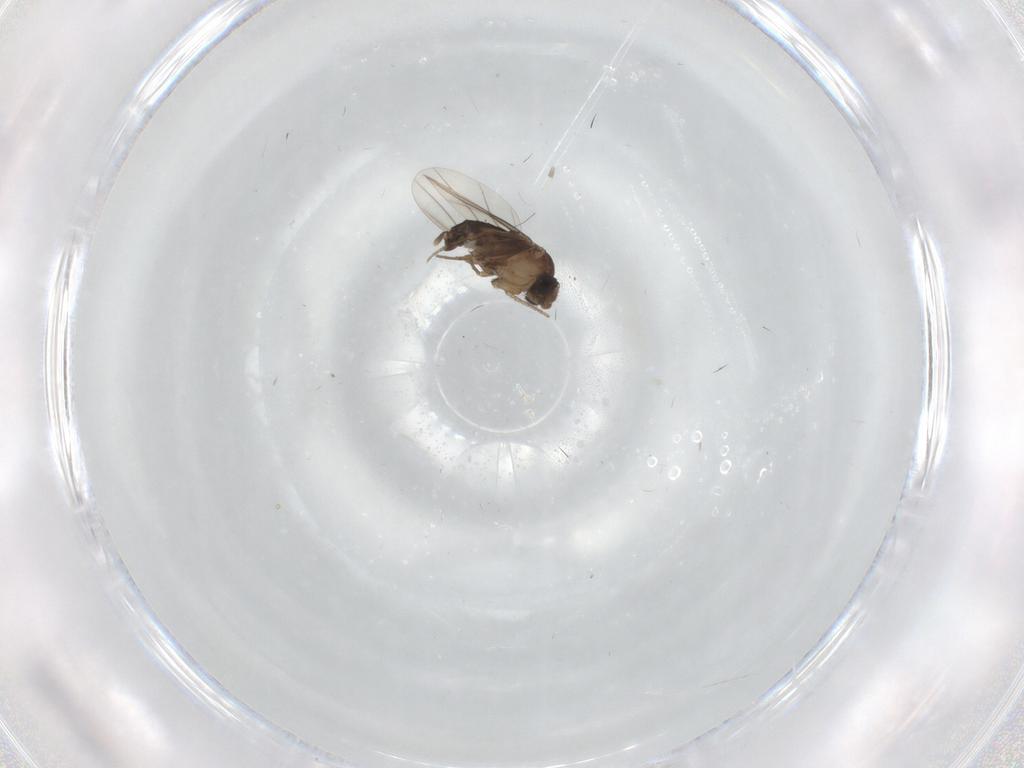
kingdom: Animalia
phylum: Arthropoda
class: Insecta
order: Diptera
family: Phoridae
